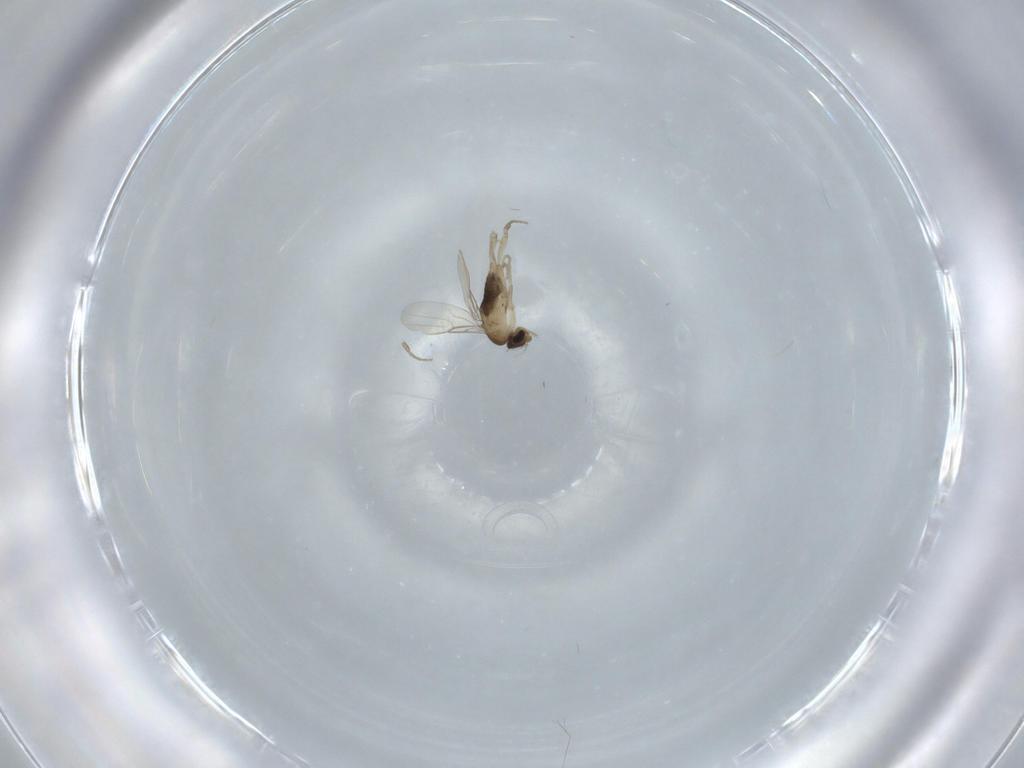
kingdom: Animalia
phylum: Arthropoda
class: Insecta
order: Diptera
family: Phoridae
